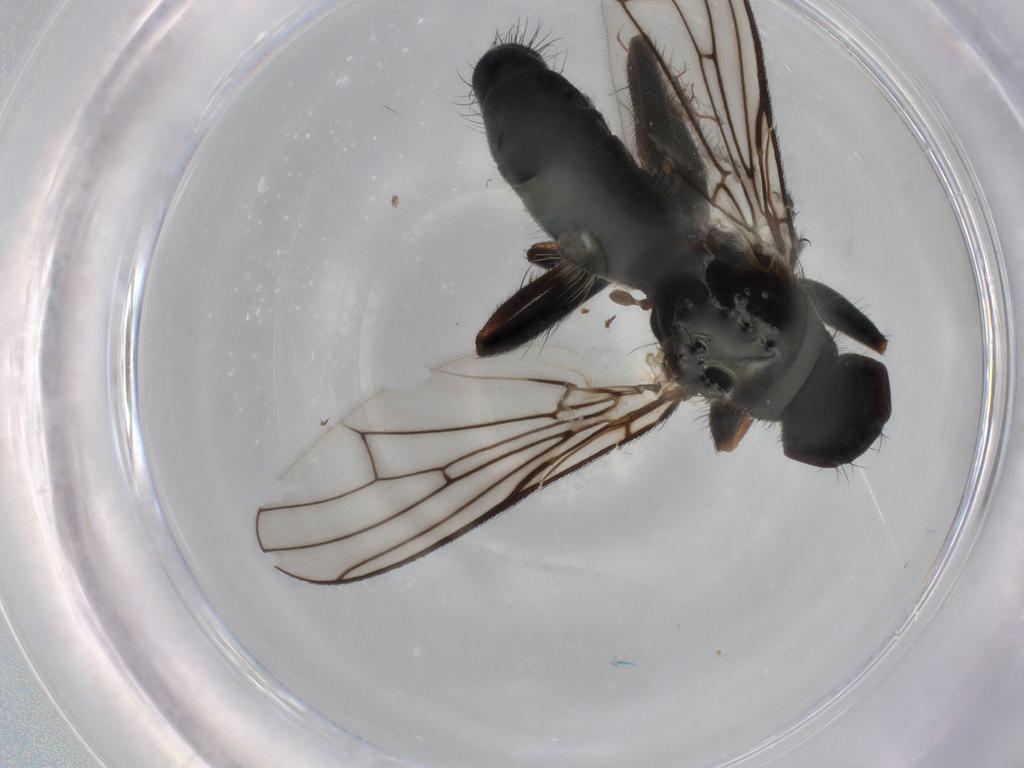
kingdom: Animalia
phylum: Arthropoda
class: Insecta
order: Diptera
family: Scathophagidae
